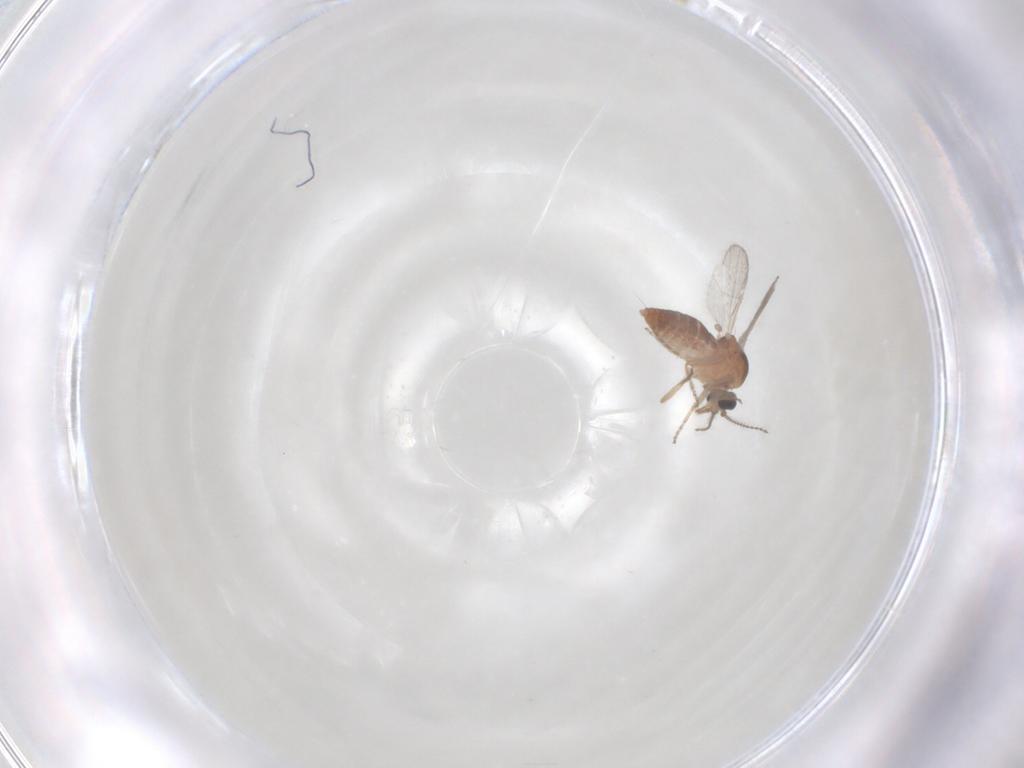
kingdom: Animalia
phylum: Arthropoda
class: Insecta
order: Diptera
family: Ceratopogonidae
